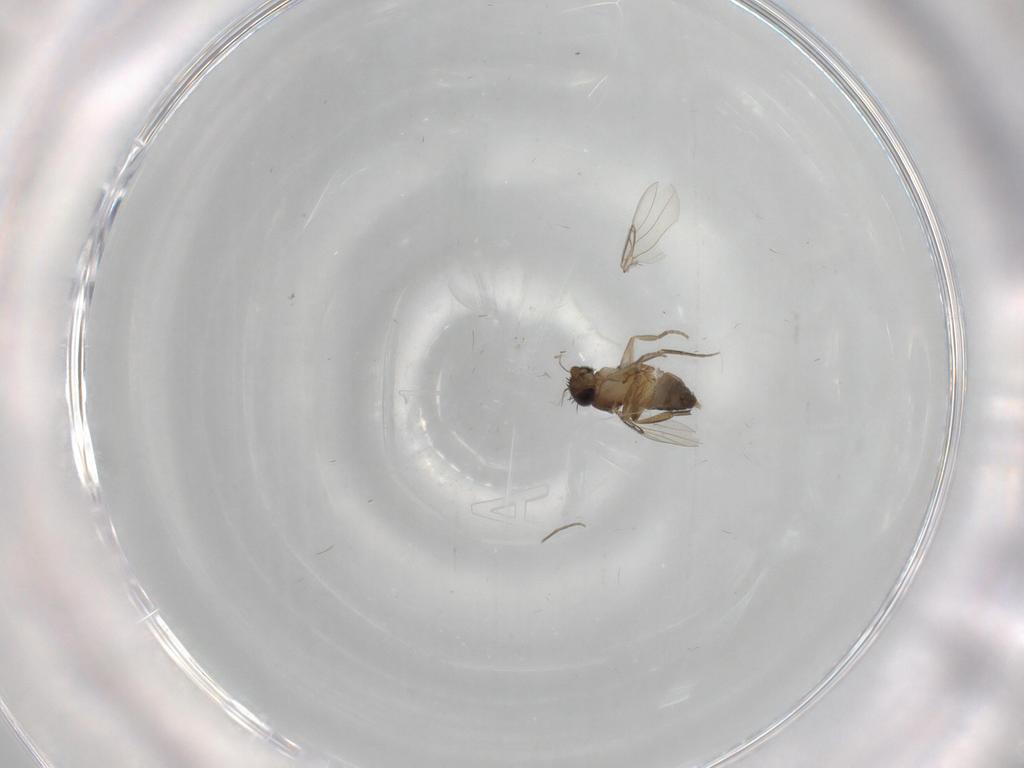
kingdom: Animalia
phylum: Arthropoda
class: Insecta
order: Diptera
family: Chironomidae
